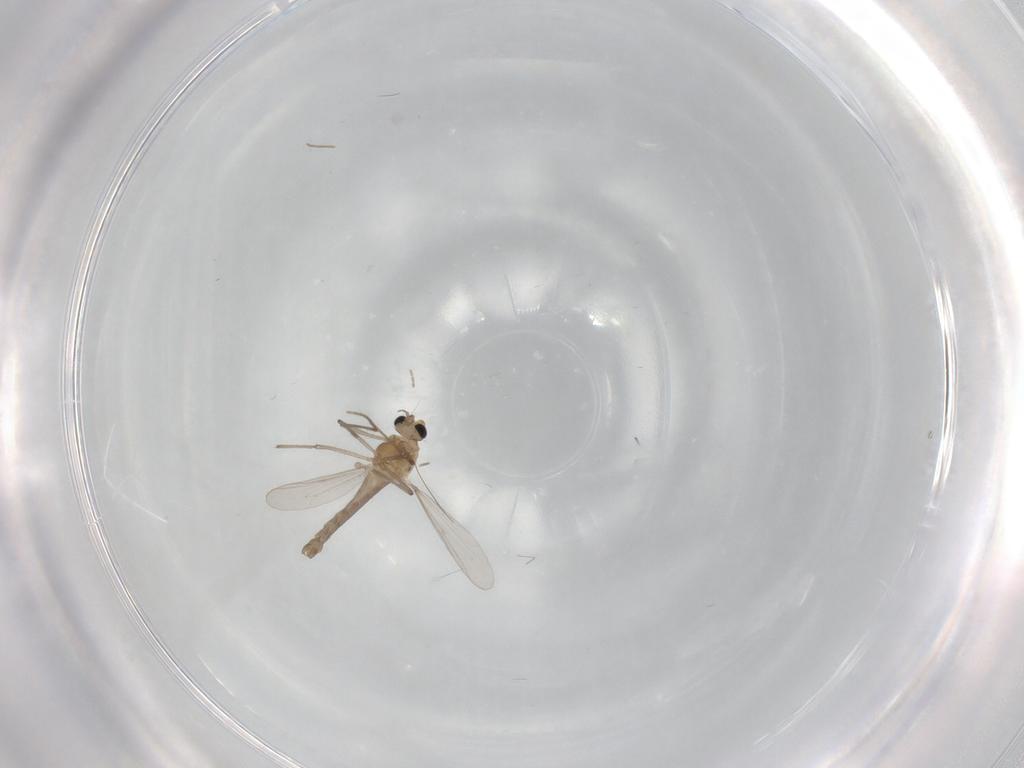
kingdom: Animalia
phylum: Arthropoda
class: Insecta
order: Diptera
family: Chironomidae
